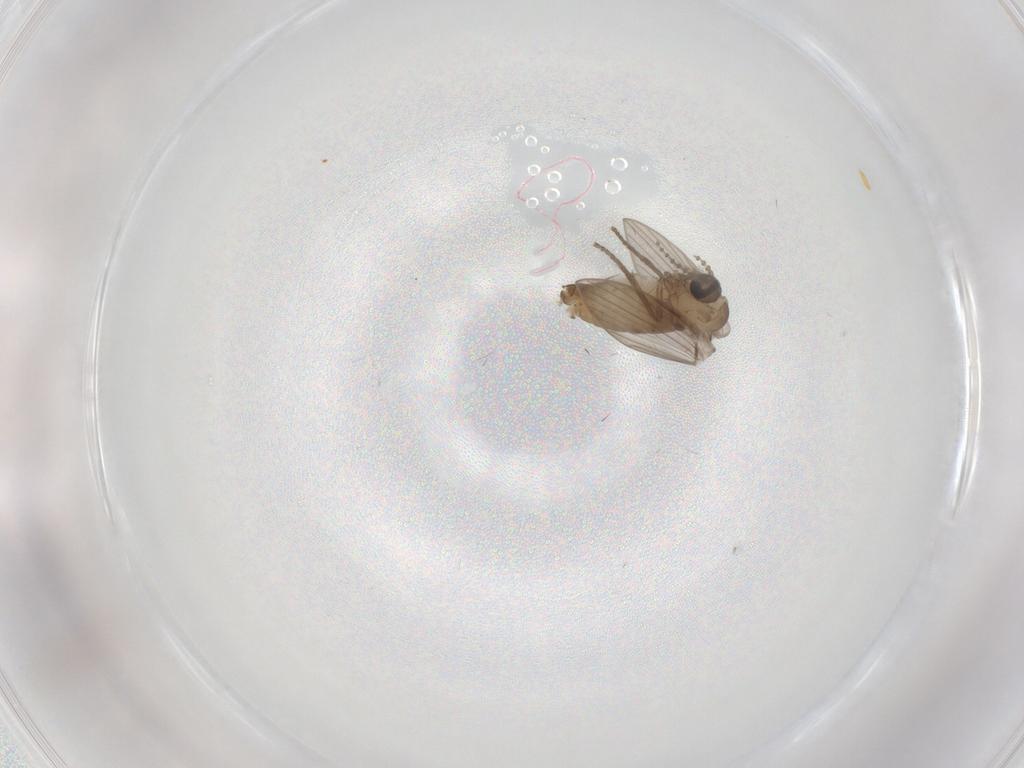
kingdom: Animalia
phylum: Arthropoda
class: Insecta
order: Diptera
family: Psychodidae
